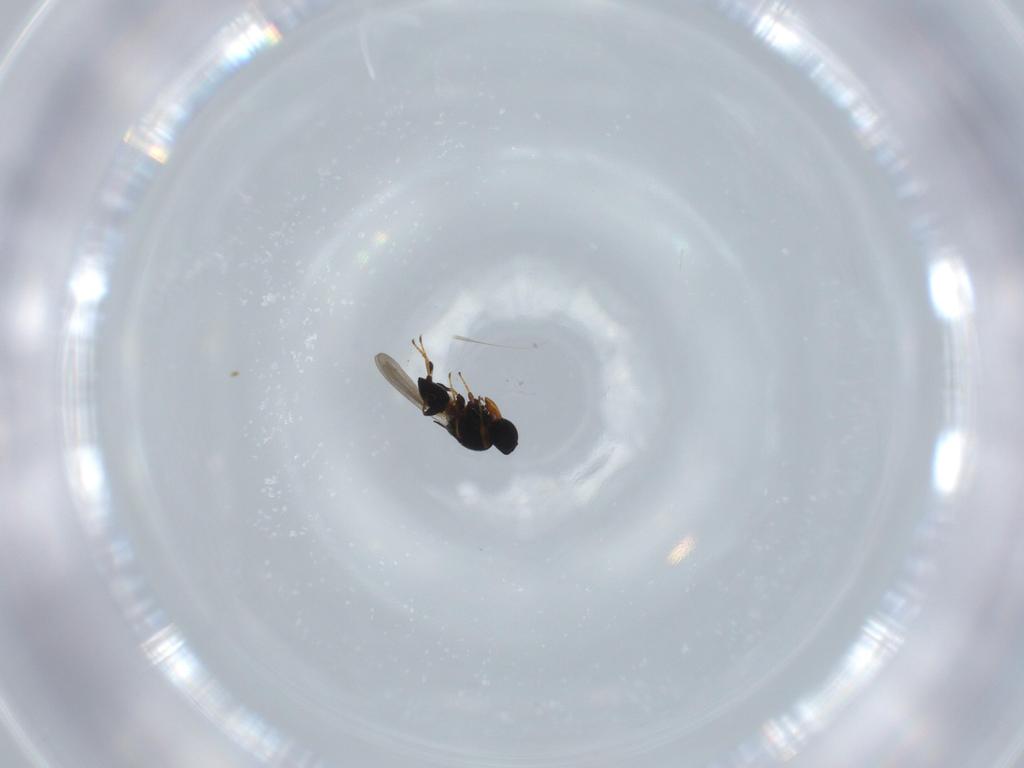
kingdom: Animalia
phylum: Arthropoda
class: Insecta
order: Hymenoptera
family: Platygastridae
